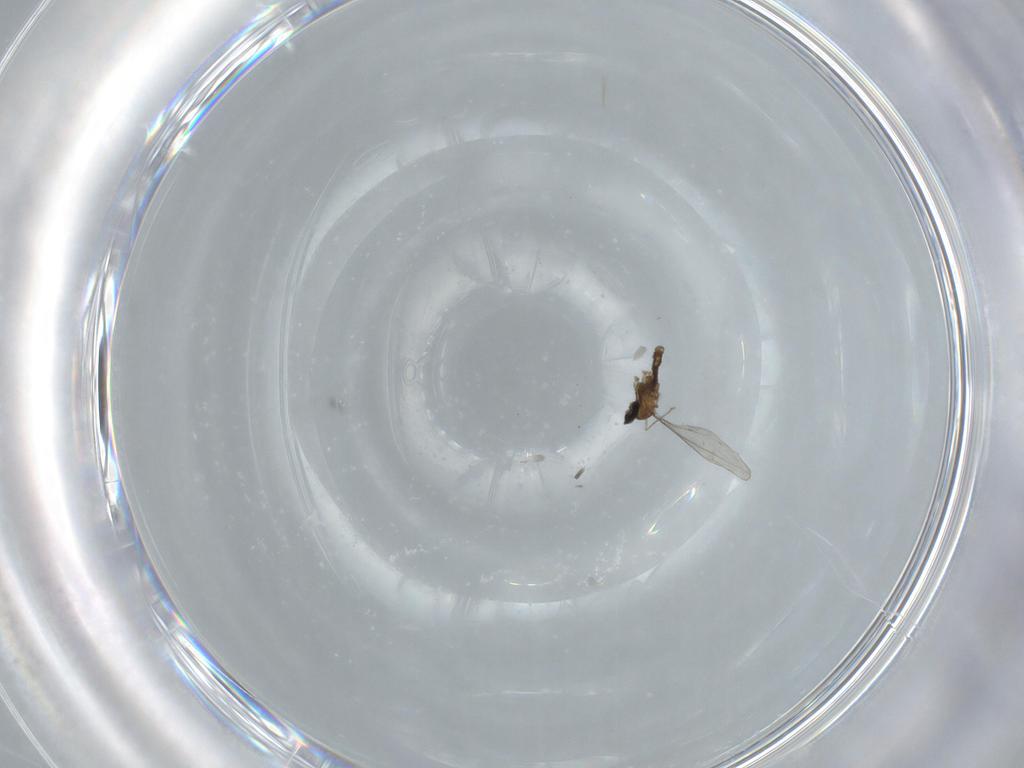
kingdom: Animalia
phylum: Arthropoda
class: Insecta
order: Diptera
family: Cecidomyiidae
